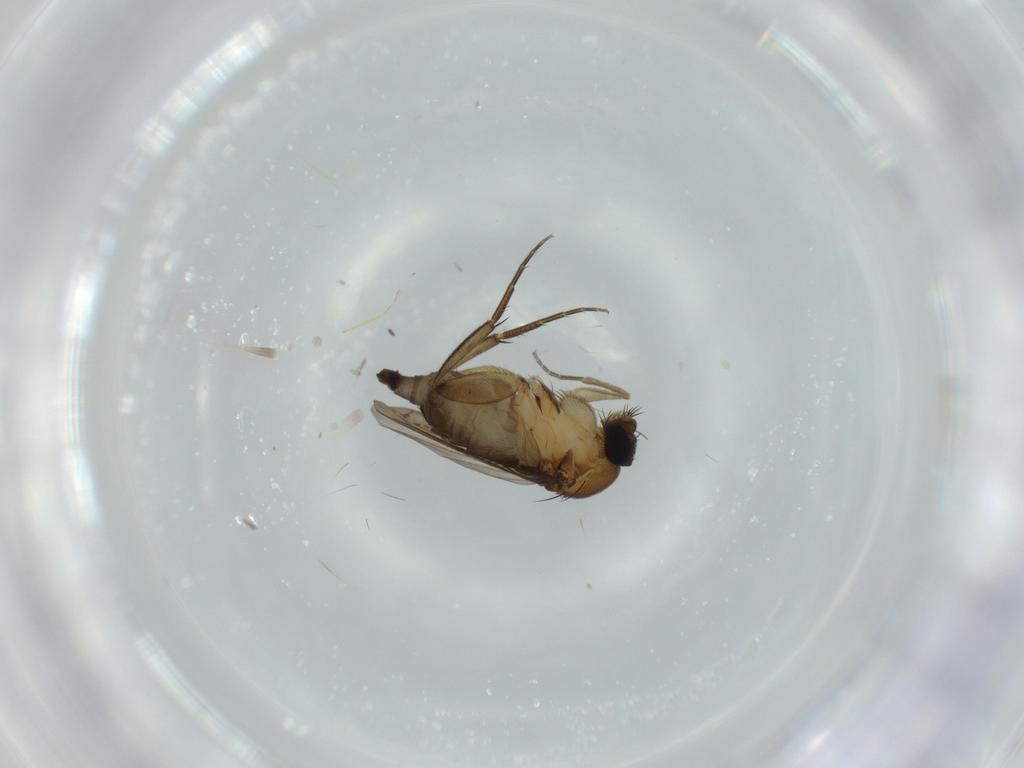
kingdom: Animalia
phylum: Arthropoda
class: Insecta
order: Diptera
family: Phoridae
